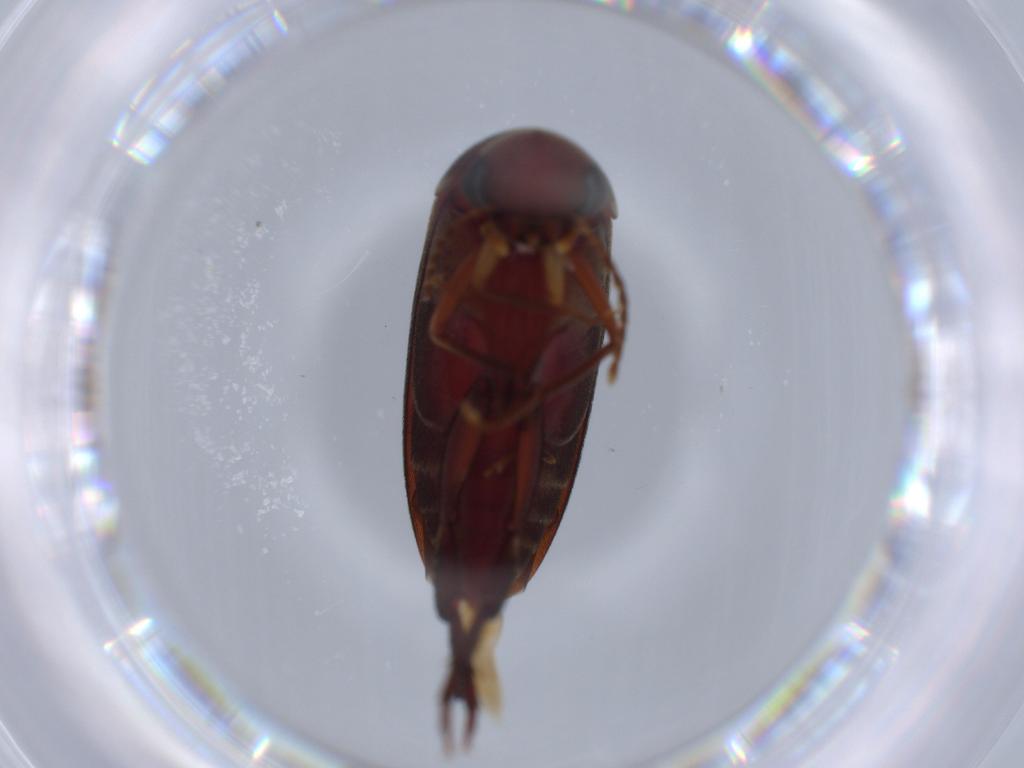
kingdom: Animalia
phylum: Arthropoda
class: Insecta
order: Coleoptera
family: Mordellidae
